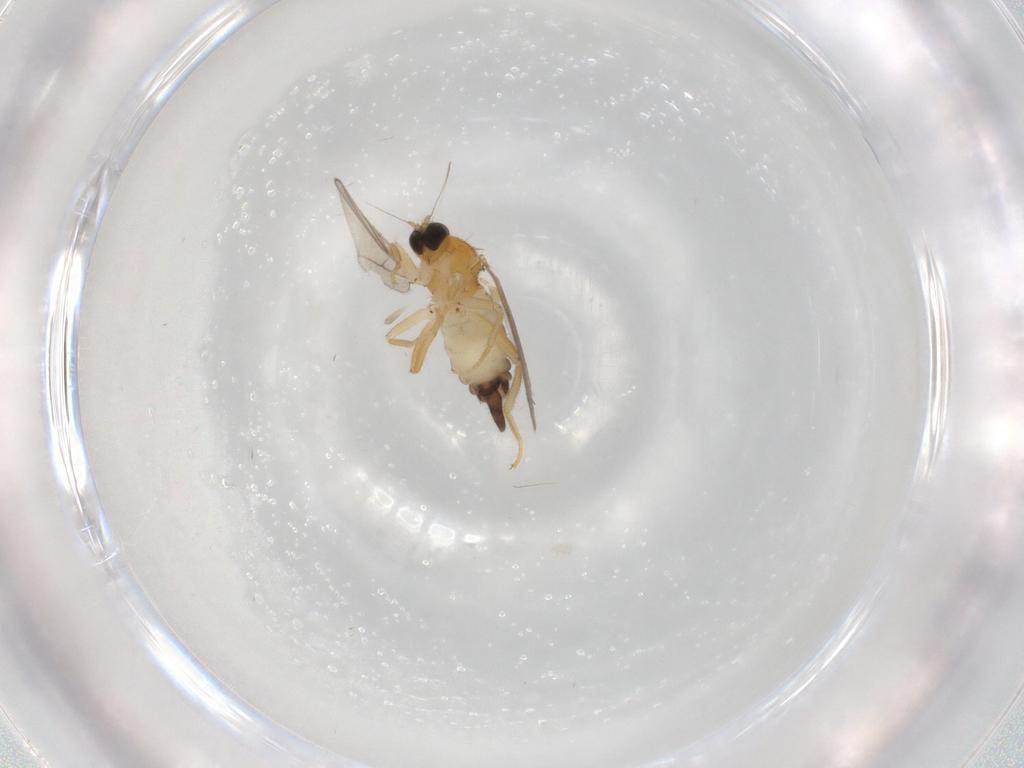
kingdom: Animalia
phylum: Arthropoda
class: Insecta
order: Diptera
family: Hybotidae
